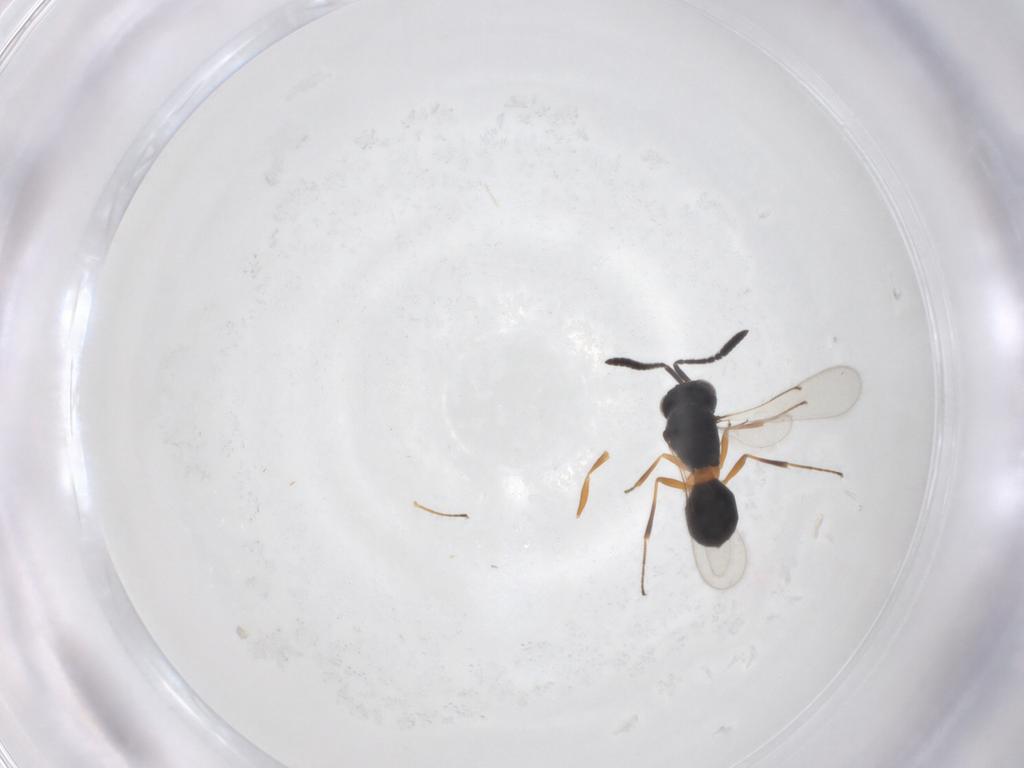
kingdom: Animalia
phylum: Arthropoda
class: Insecta
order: Hymenoptera
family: Scelionidae
